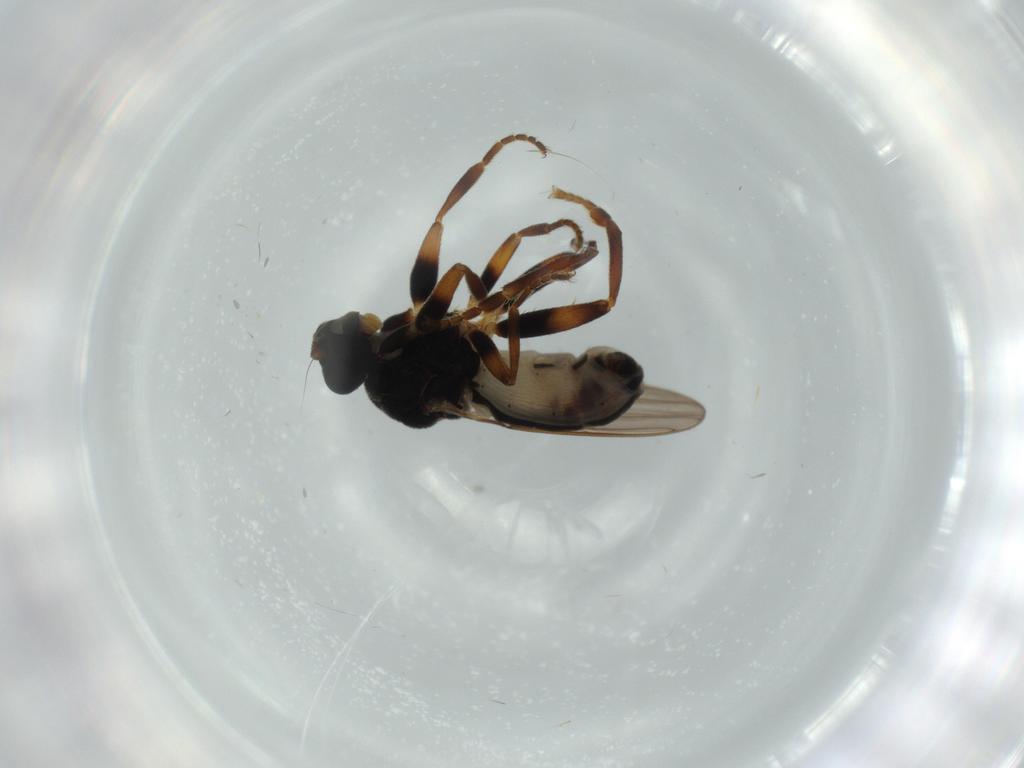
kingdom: Animalia
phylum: Arthropoda
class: Insecta
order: Diptera
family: Sphaeroceridae
